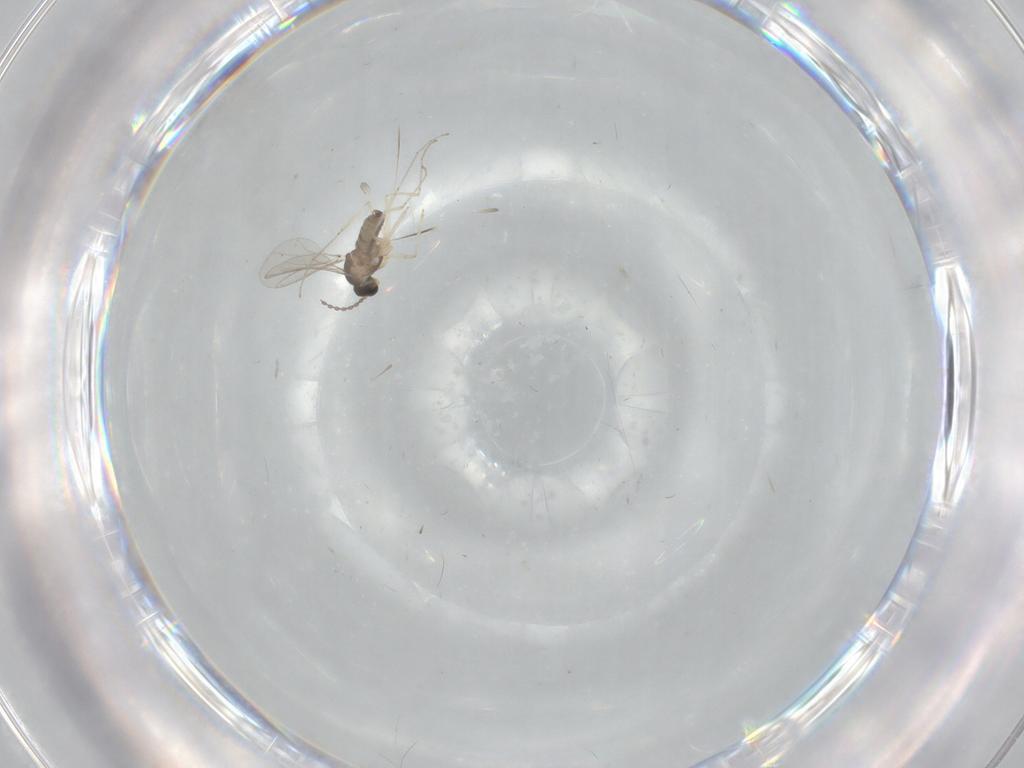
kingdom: Animalia
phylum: Arthropoda
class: Insecta
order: Diptera
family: Cecidomyiidae
